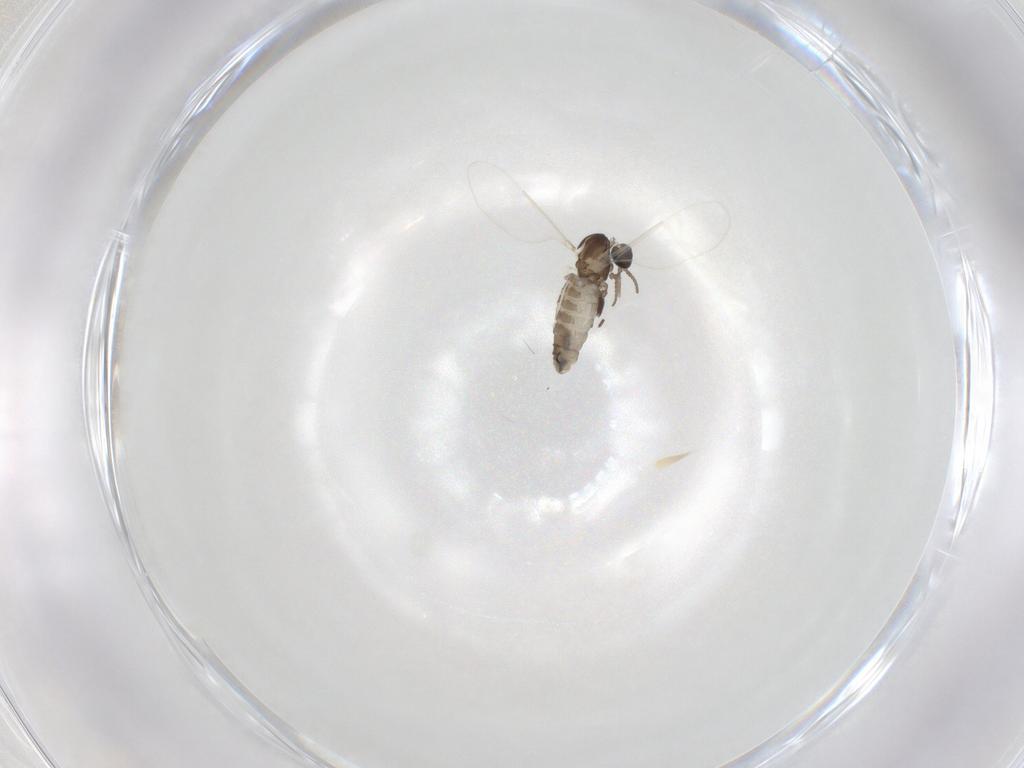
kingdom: Animalia
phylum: Arthropoda
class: Insecta
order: Diptera
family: Cecidomyiidae
